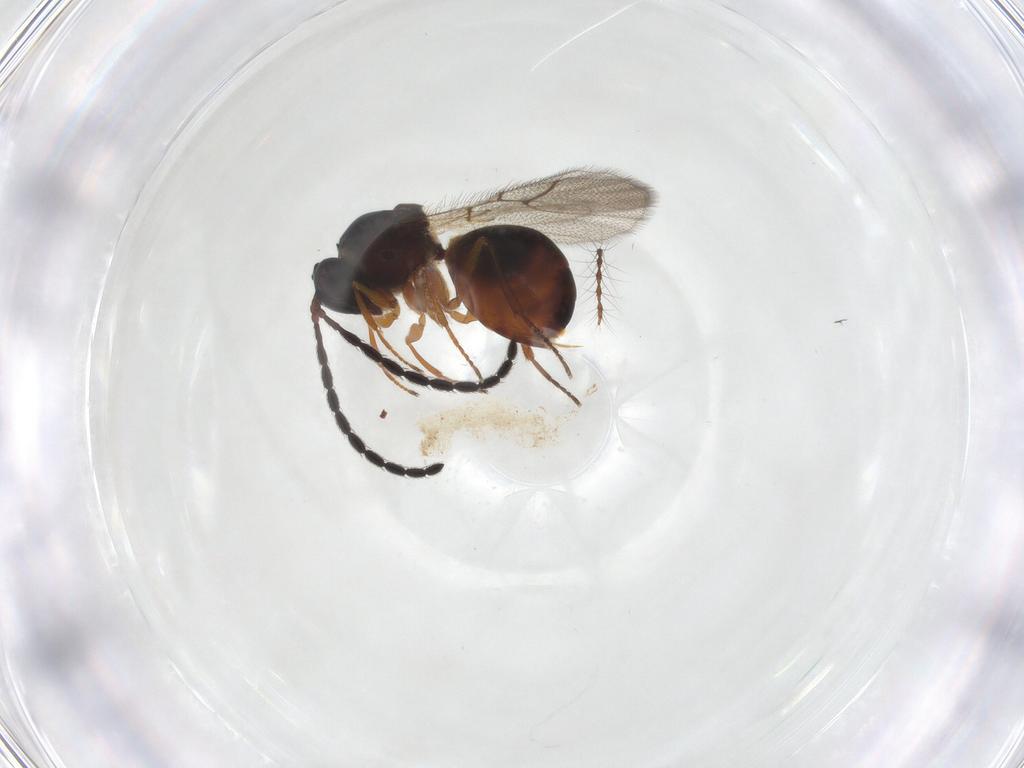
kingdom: Animalia
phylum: Arthropoda
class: Insecta
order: Hymenoptera
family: Figitidae
